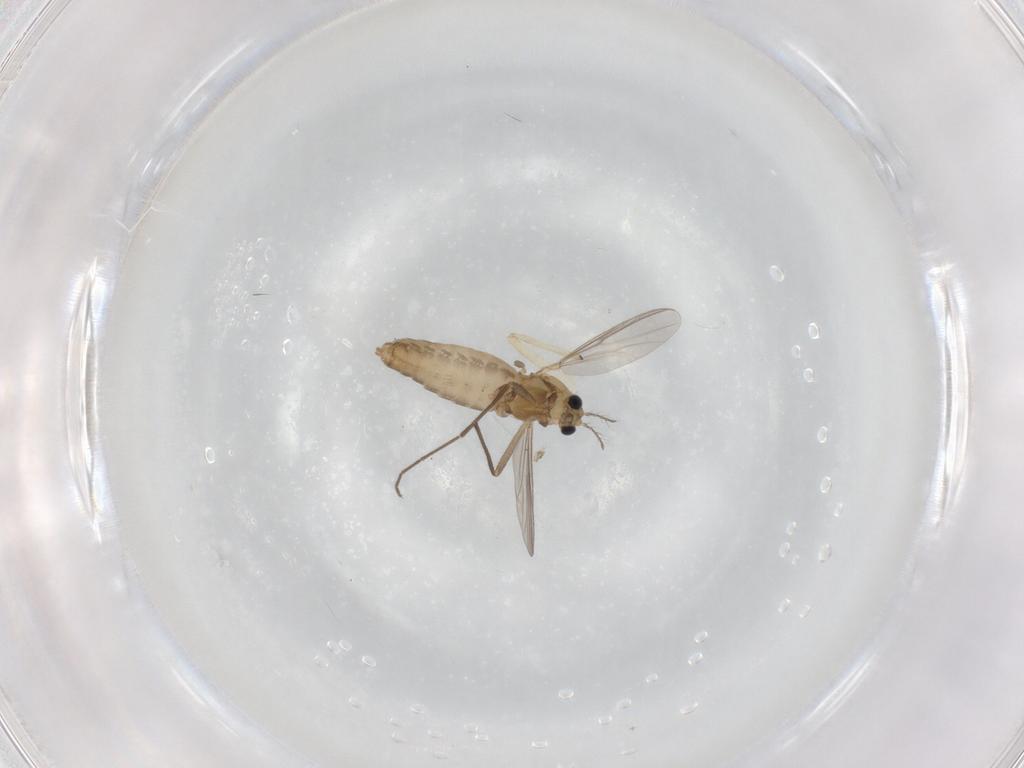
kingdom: Animalia
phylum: Arthropoda
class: Insecta
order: Diptera
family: Chironomidae
